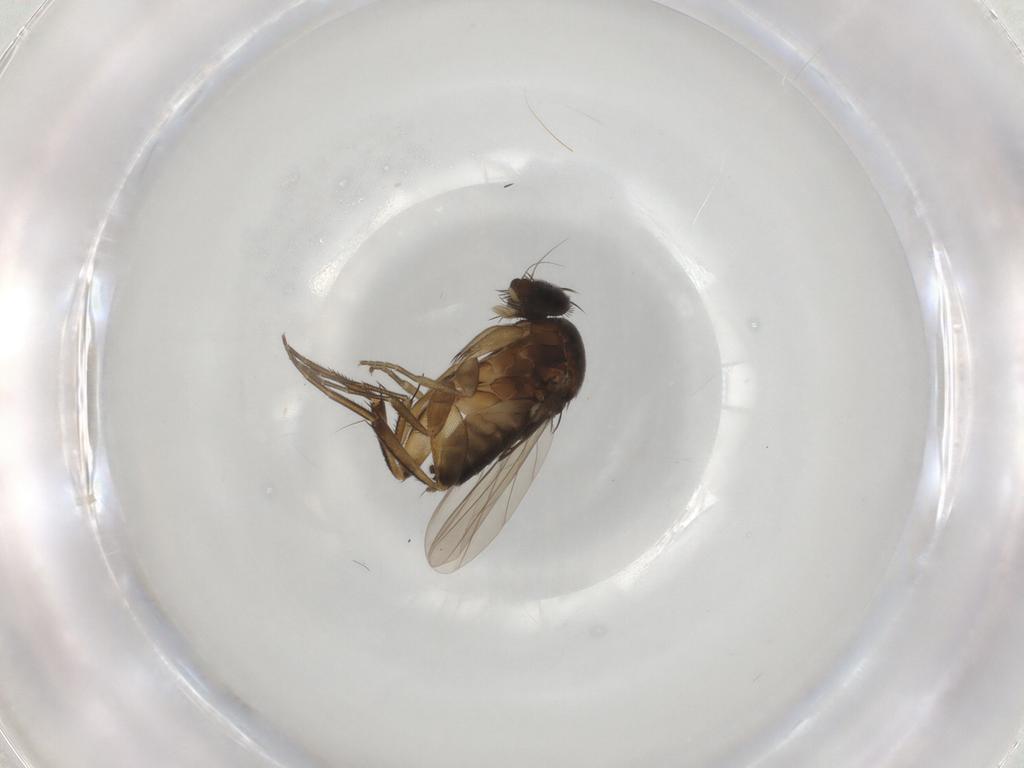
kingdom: Animalia
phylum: Arthropoda
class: Insecta
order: Diptera
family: Phoridae
